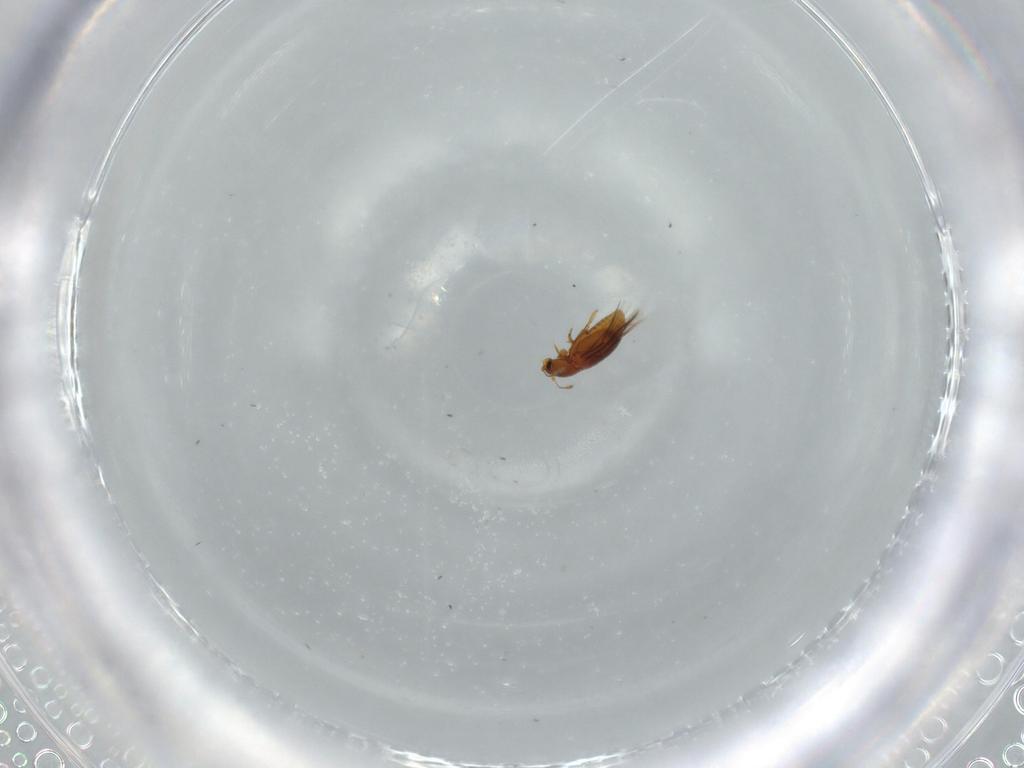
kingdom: Animalia
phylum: Arthropoda
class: Insecta
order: Coleoptera
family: Ptiliidae
